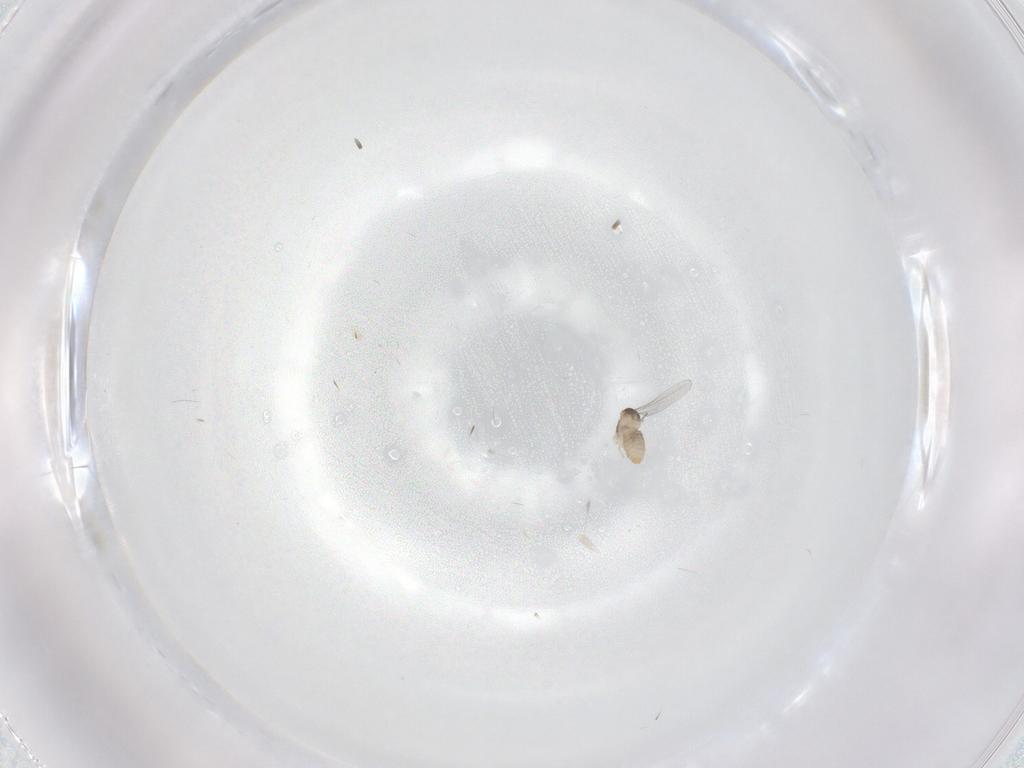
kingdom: Animalia
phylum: Arthropoda
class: Insecta
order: Diptera
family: Cecidomyiidae
